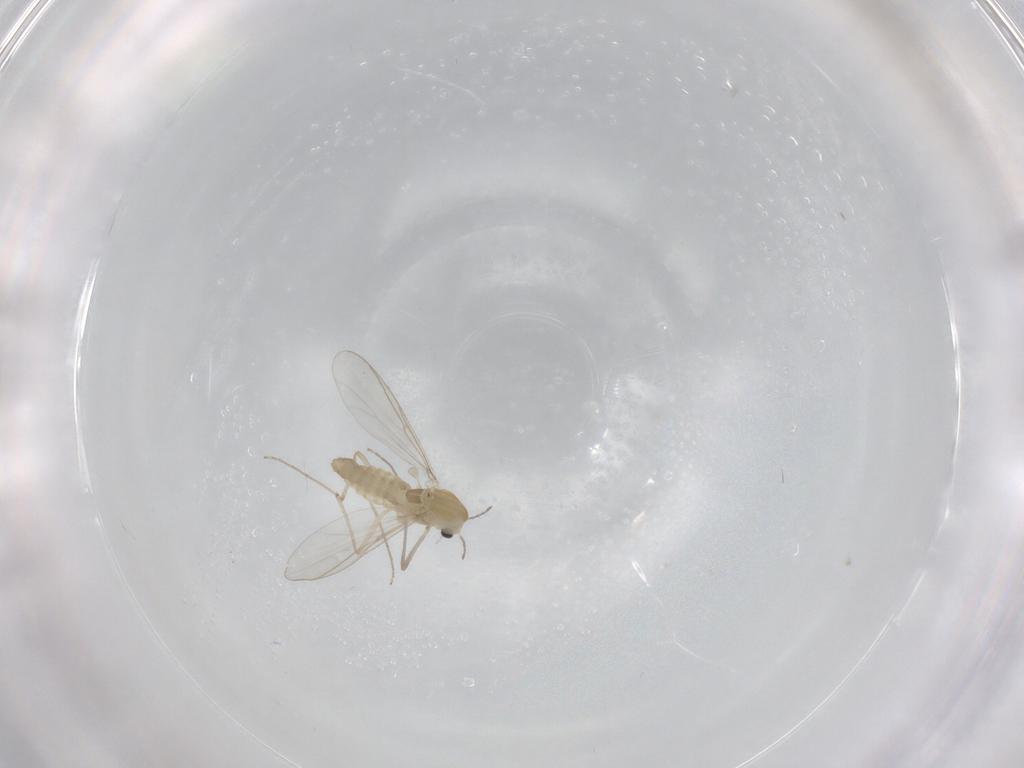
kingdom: Animalia
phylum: Arthropoda
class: Insecta
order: Diptera
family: Chironomidae
